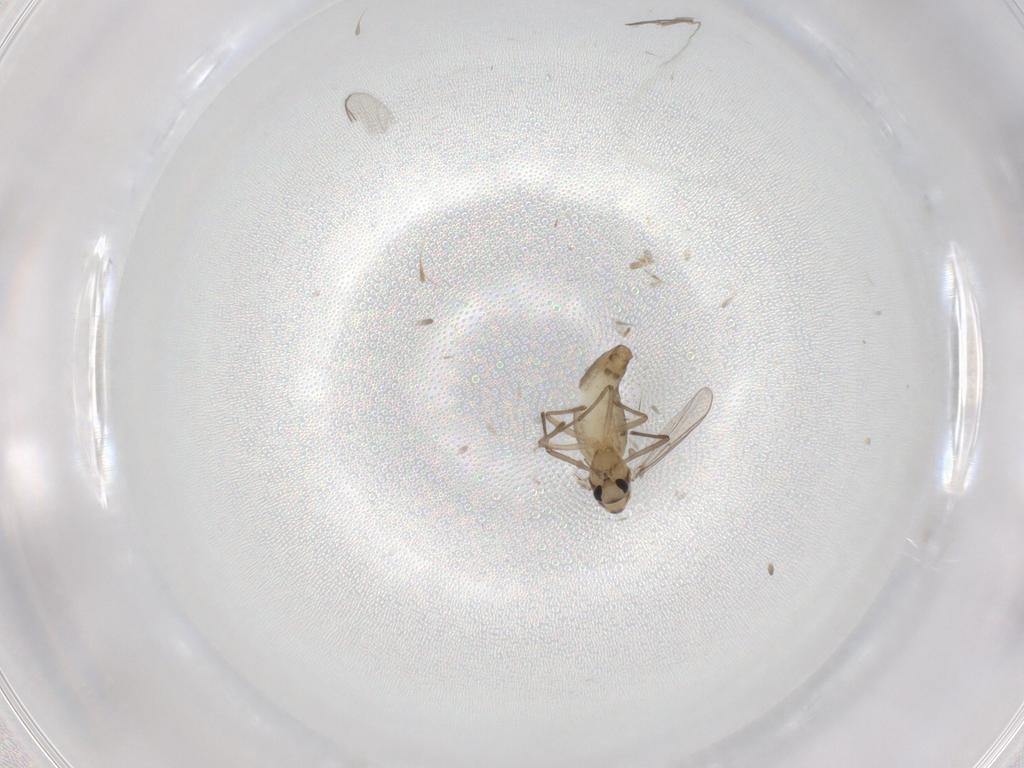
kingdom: Animalia
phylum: Arthropoda
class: Insecta
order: Diptera
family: Chironomidae
